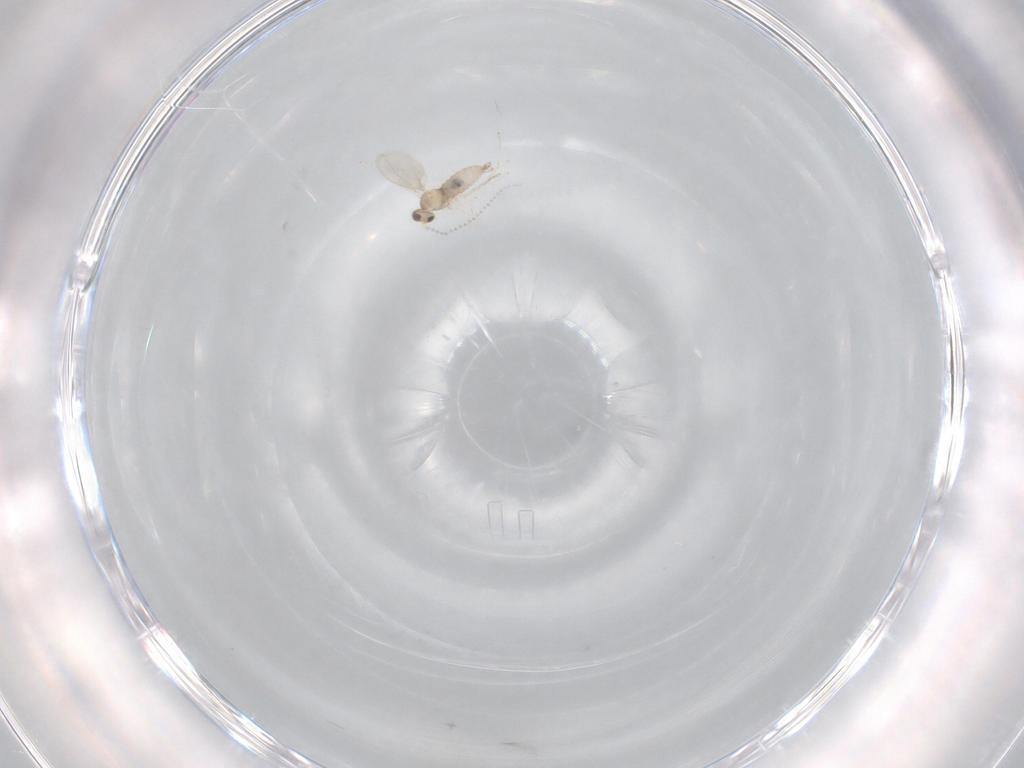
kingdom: Animalia
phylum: Arthropoda
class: Insecta
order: Diptera
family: Cecidomyiidae
